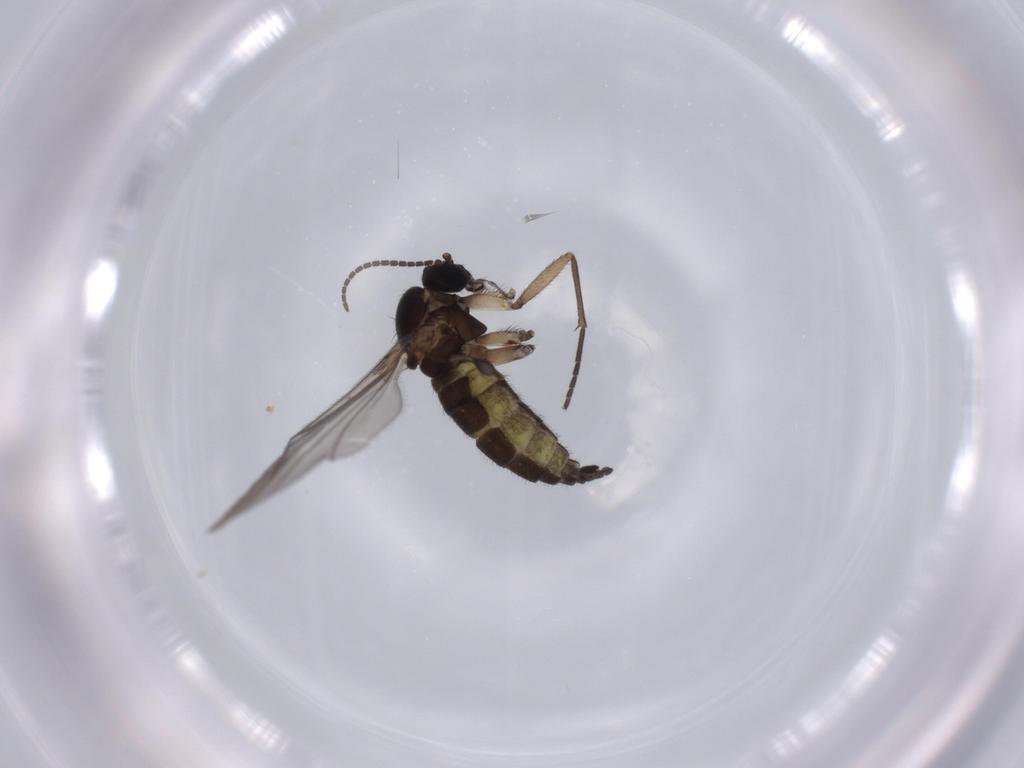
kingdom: Animalia
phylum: Arthropoda
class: Insecta
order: Diptera
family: Sciaridae
